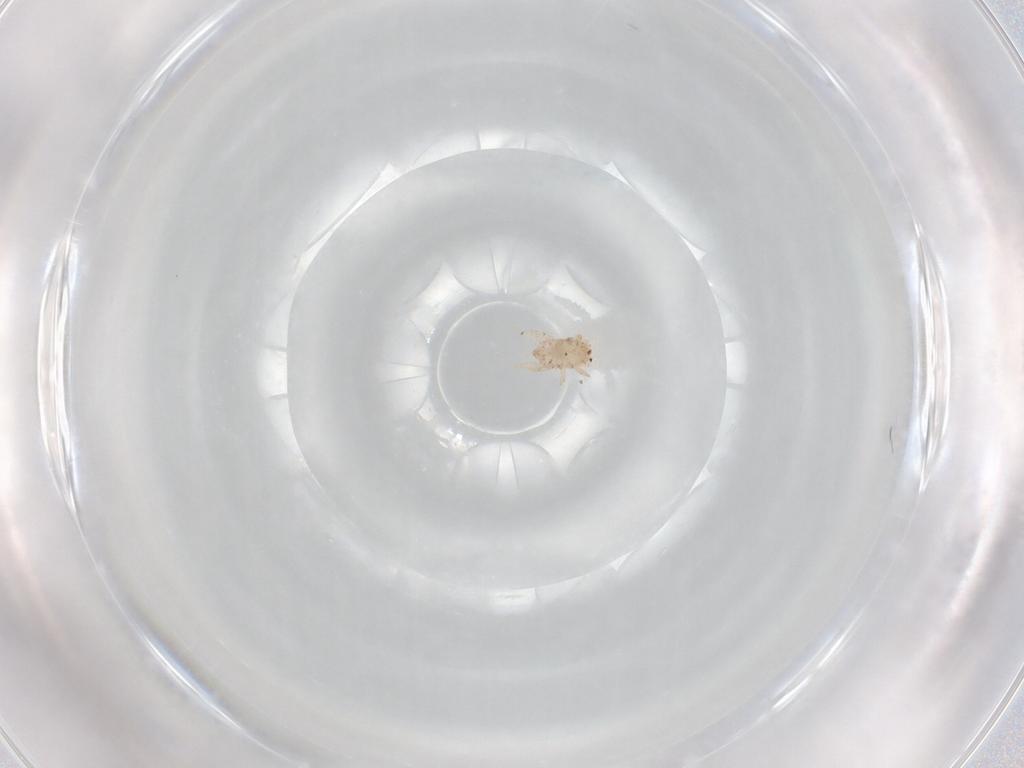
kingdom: Animalia
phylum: Arthropoda
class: Arachnida
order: Sarcoptiformes
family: Crotoniidae
